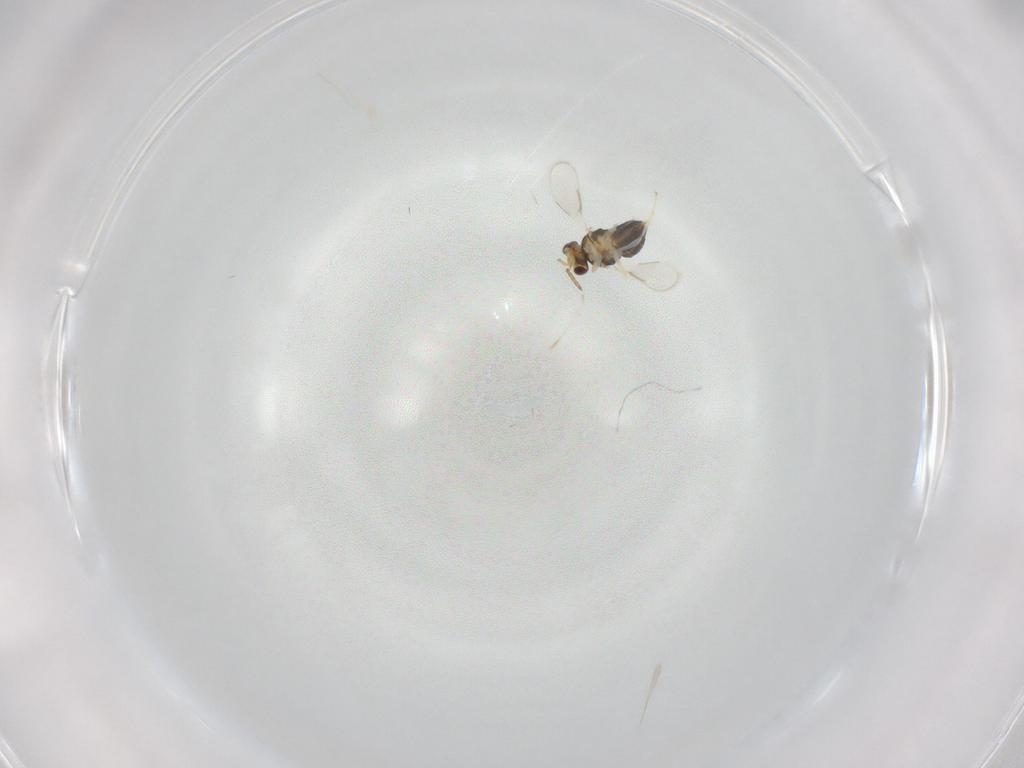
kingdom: Animalia
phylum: Arthropoda
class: Insecta
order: Hymenoptera
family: Aphelinidae
